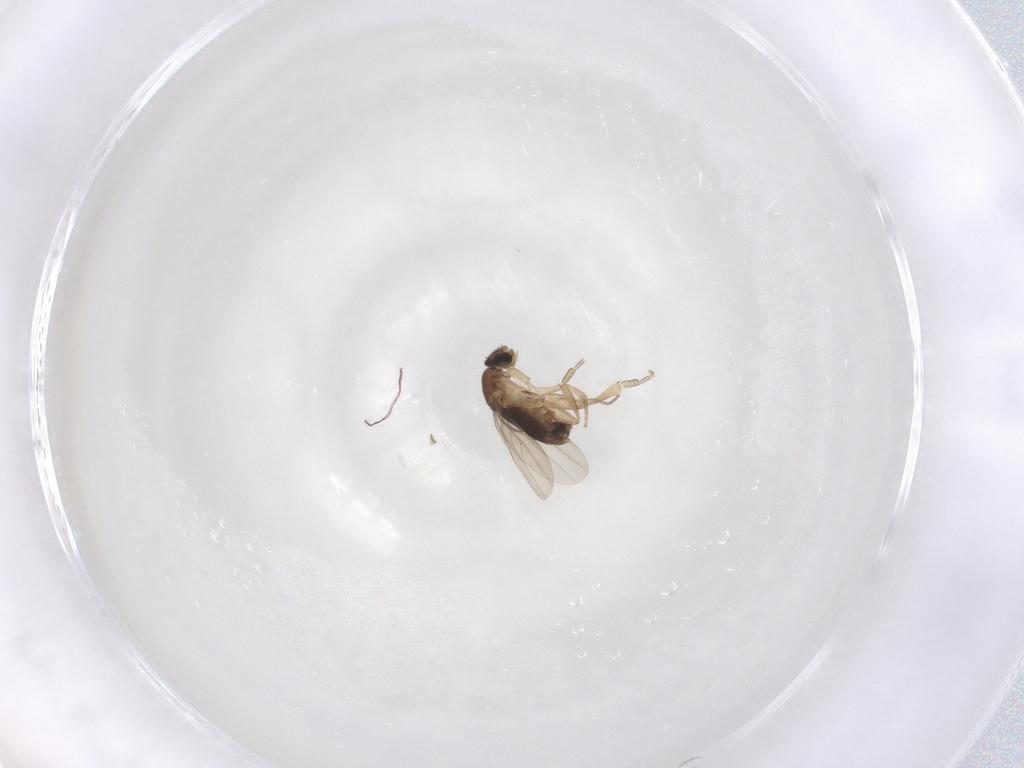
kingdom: Animalia
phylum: Arthropoda
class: Insecta
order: Diptera
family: Phoridae
